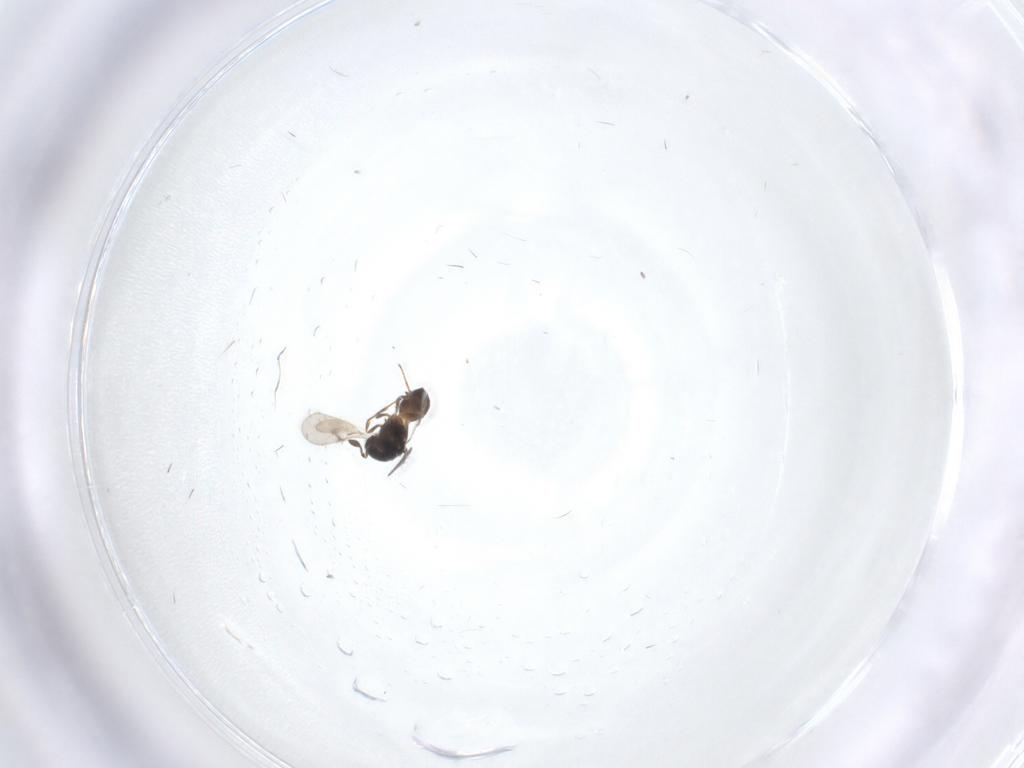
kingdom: Animalia
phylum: Arthropoda
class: Insecta
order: Hymenoptera
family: Scelionidae
